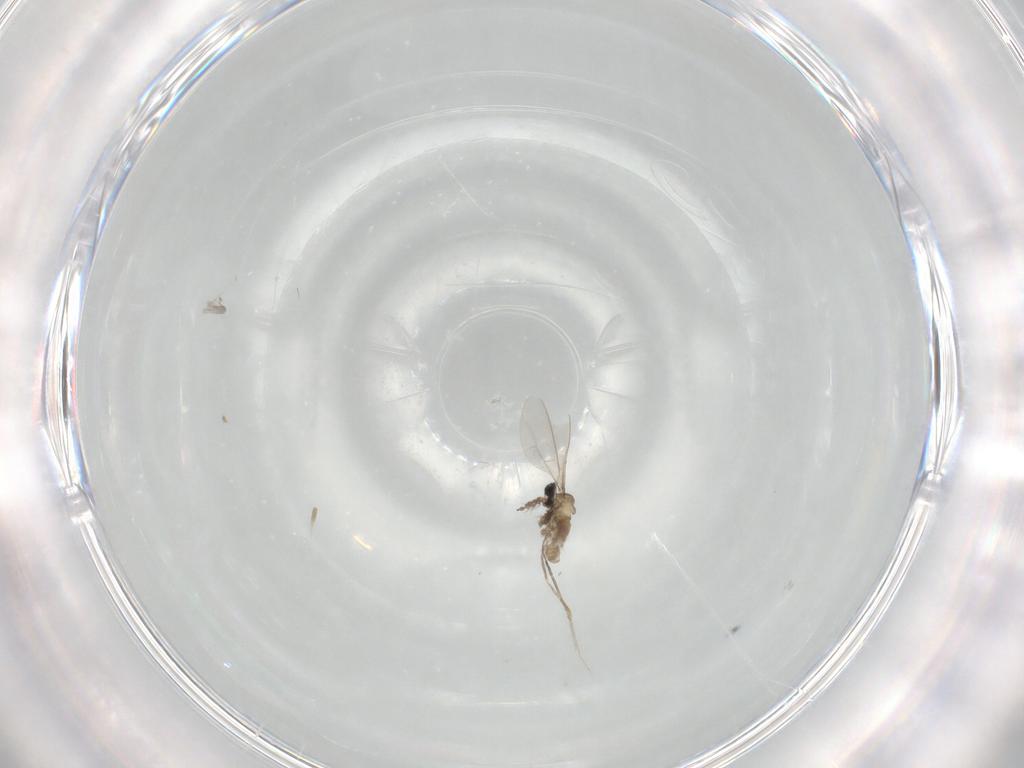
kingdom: Animalia
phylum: Arthropoda
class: Insecta
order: Diptera
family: Cecidomyiidae
